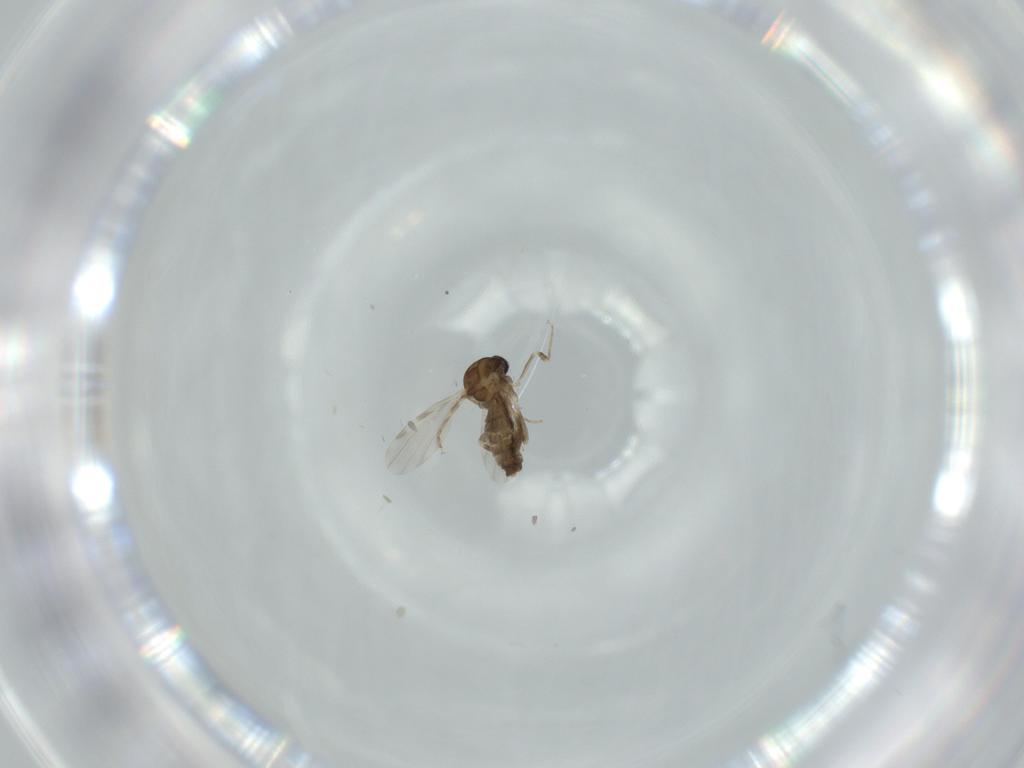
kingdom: Animalia
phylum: Arthropoda
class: Insecta
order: Diptera
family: Ceratopogonidae
